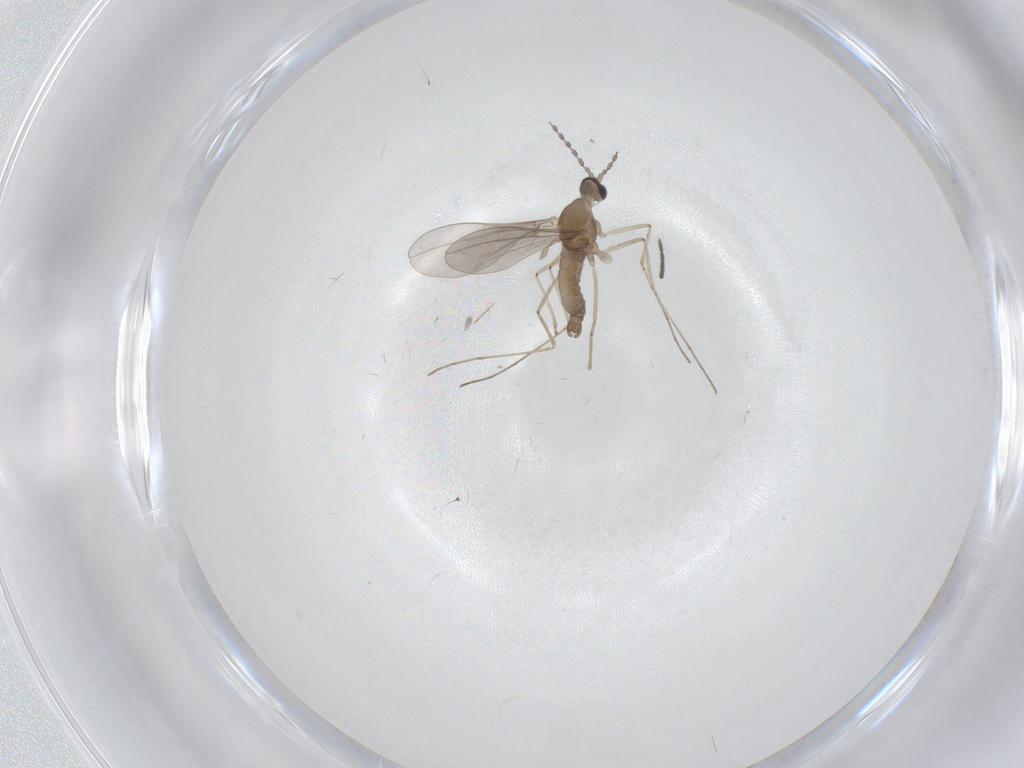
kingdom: Animalia
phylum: Arthropoda
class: Insecta
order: Diptera
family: Cecidomyiidae
